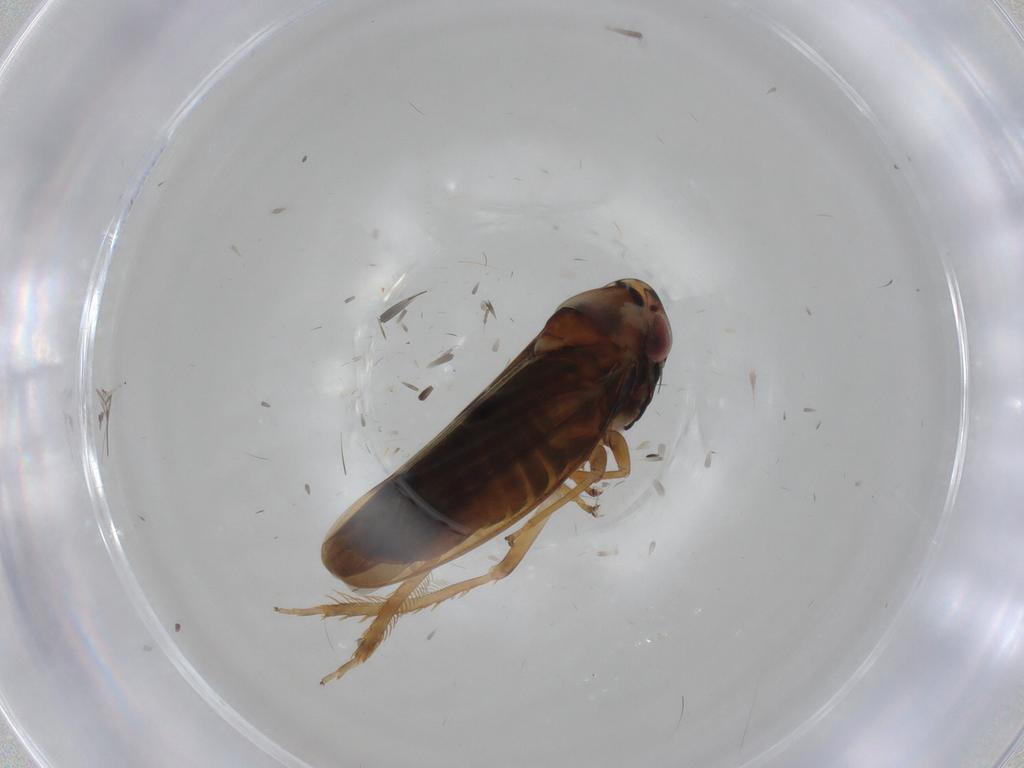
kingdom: Animalia
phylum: Arthropoda
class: Insecta
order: Hemiptera
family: Cicadellidae
